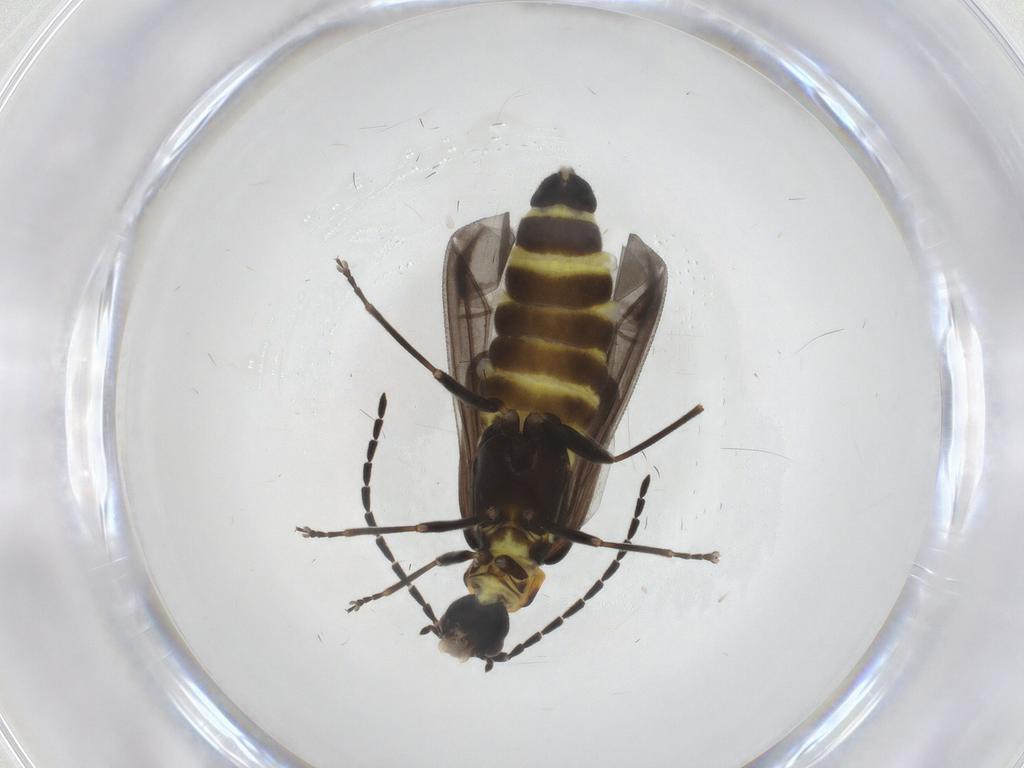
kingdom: Animalia
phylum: Arthropoda
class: Insecta
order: Coleoptera
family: Cantharidae
